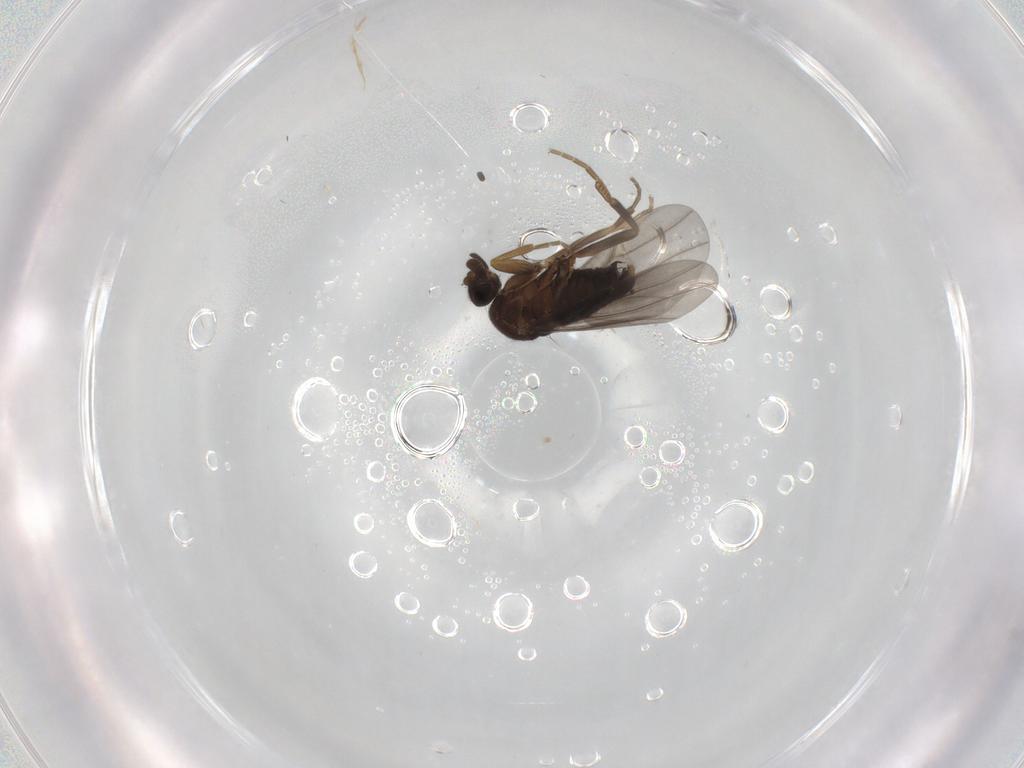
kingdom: Animalia
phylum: Arthropoda
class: Insecta
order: Diptera
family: Phoridae
